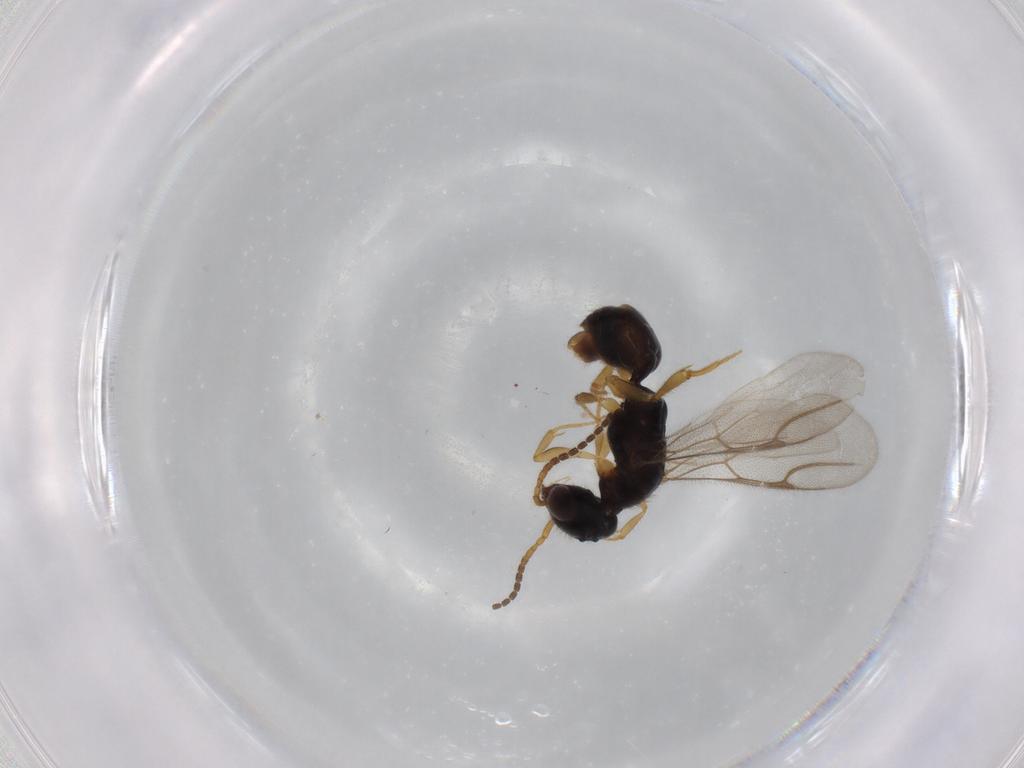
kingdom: Animalia
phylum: Arthropoda
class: Insecta
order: Hymenoptera
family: Bethylidae
